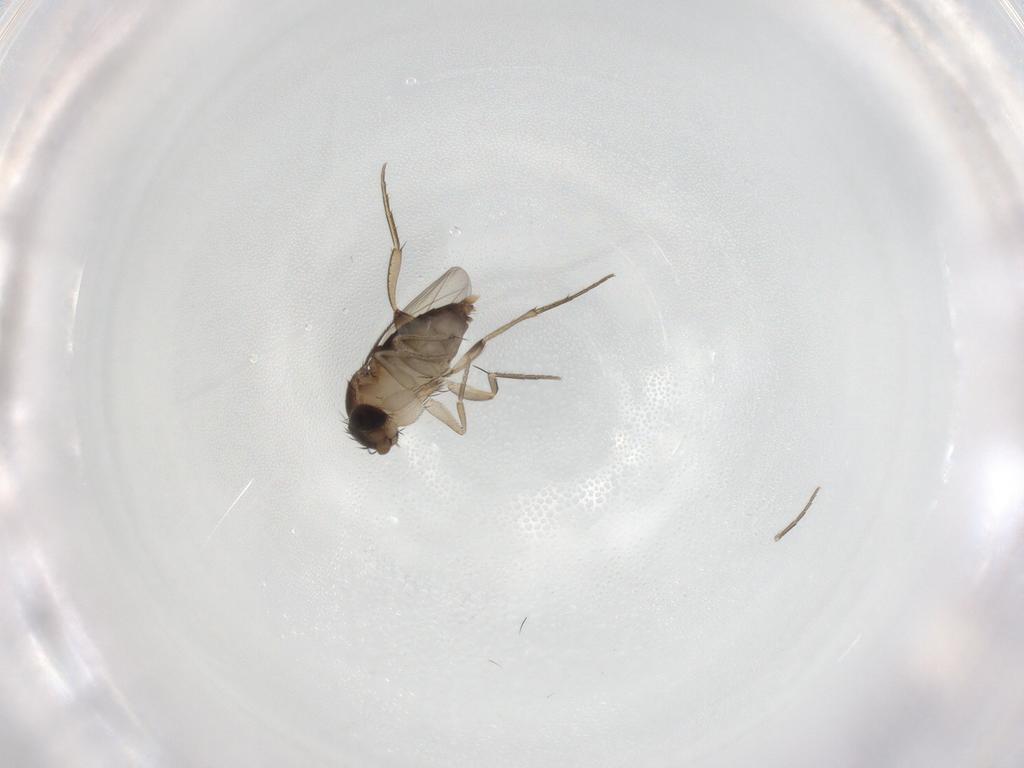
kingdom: Animalia
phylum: Arthropoda
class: Insecta
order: Diptera
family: Phoridae
